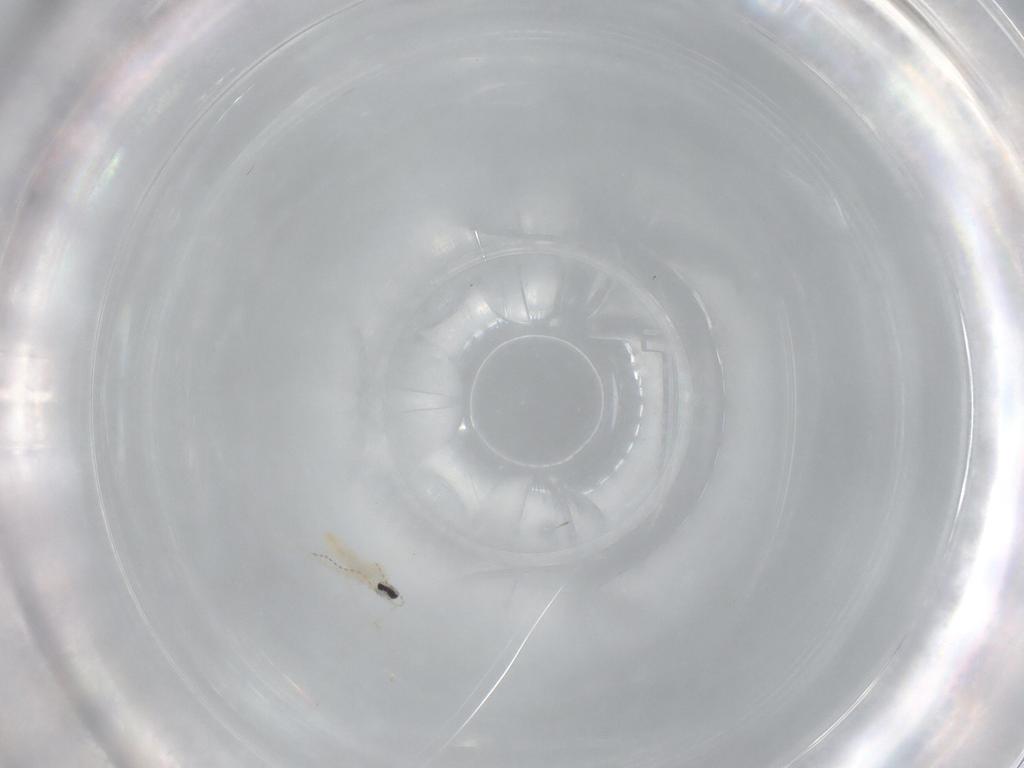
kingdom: Animalia
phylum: Arthropoda
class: Insecta
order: Diptera
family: Cecidomyiidae
